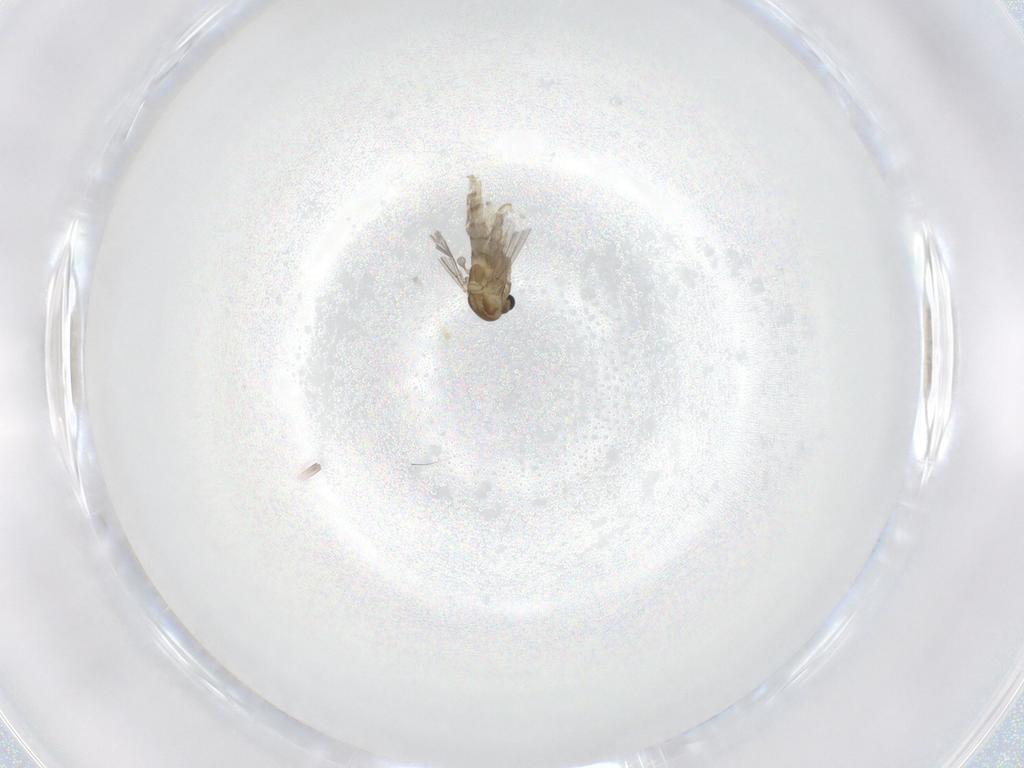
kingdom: Animalia
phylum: Arthropoda
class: Insecta
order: Diptera
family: Chironomidae
